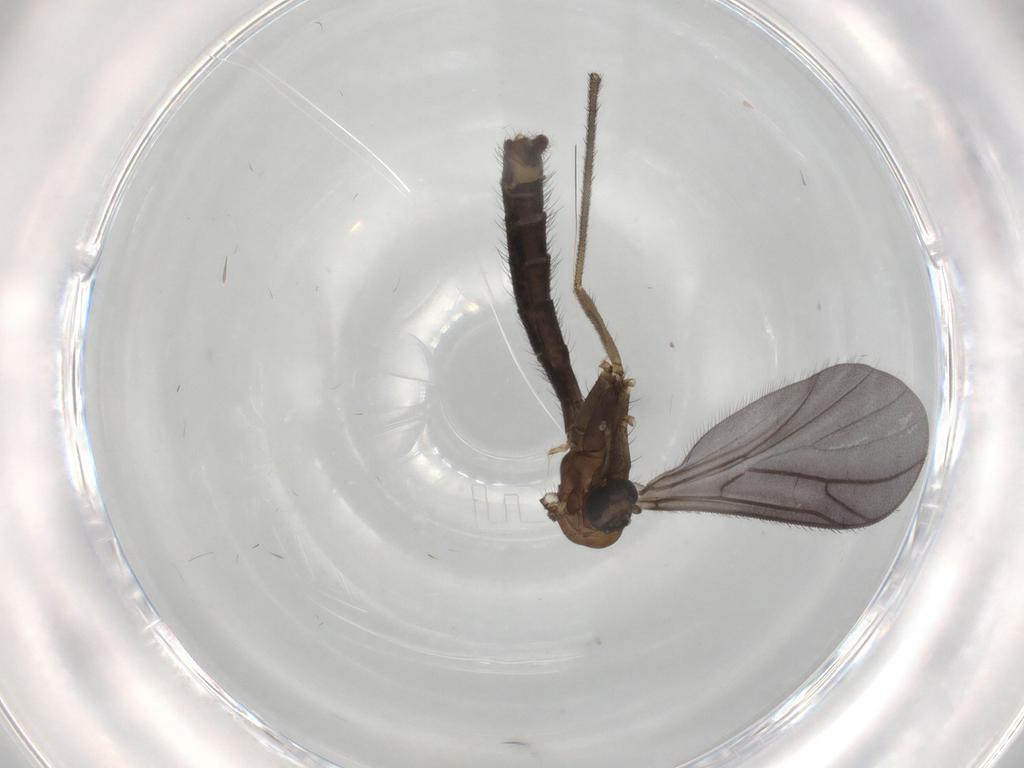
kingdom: Animalia
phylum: Arthropoda
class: Insecta
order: Diptera
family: Cecidomyiidae
